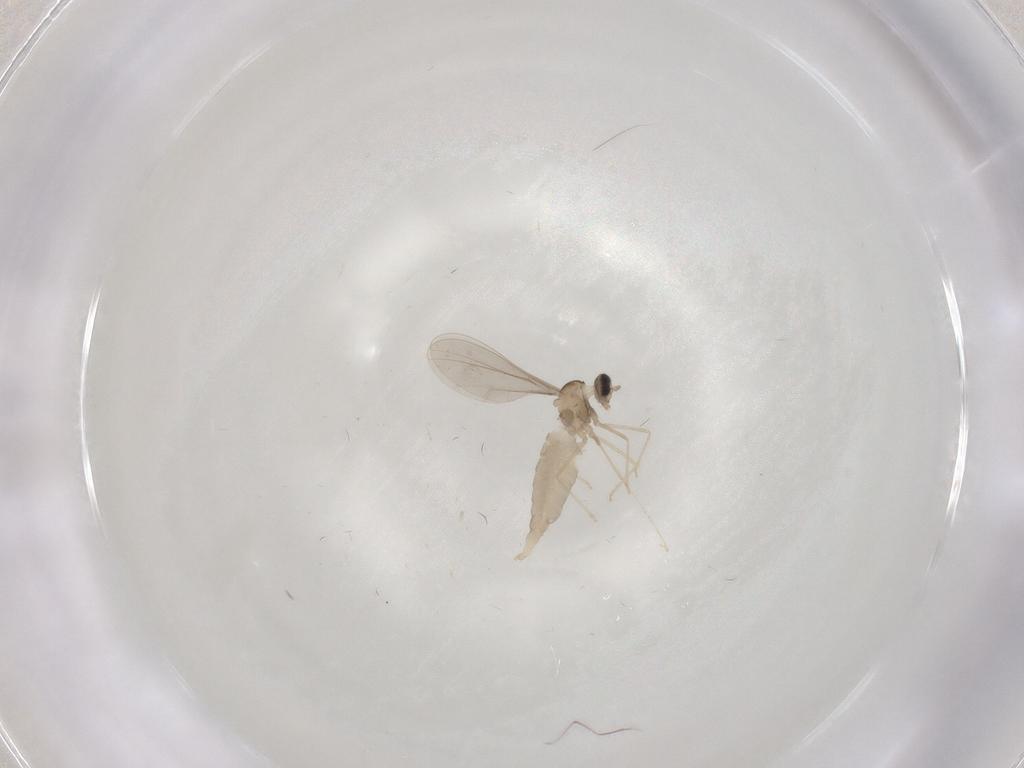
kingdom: Animalia
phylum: Arthropoda
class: Insecta
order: Diptera
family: Cecidomyiidae
